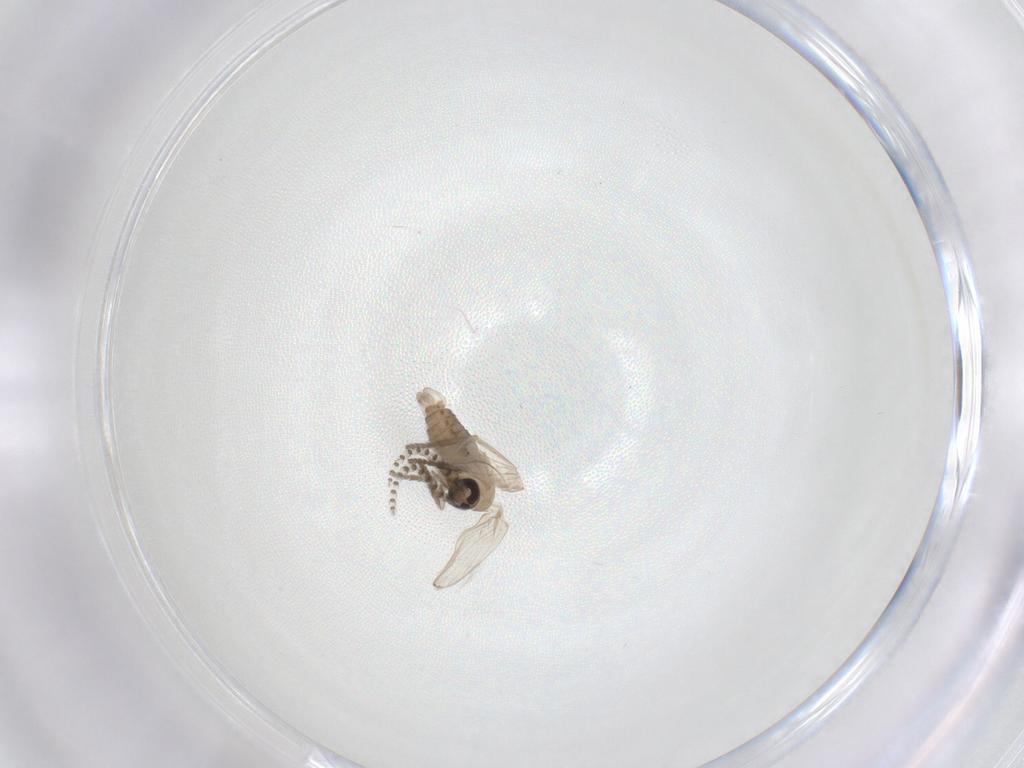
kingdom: Animalia
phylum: Arthropoda
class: Insecta
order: Diptera
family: Psychodidae
